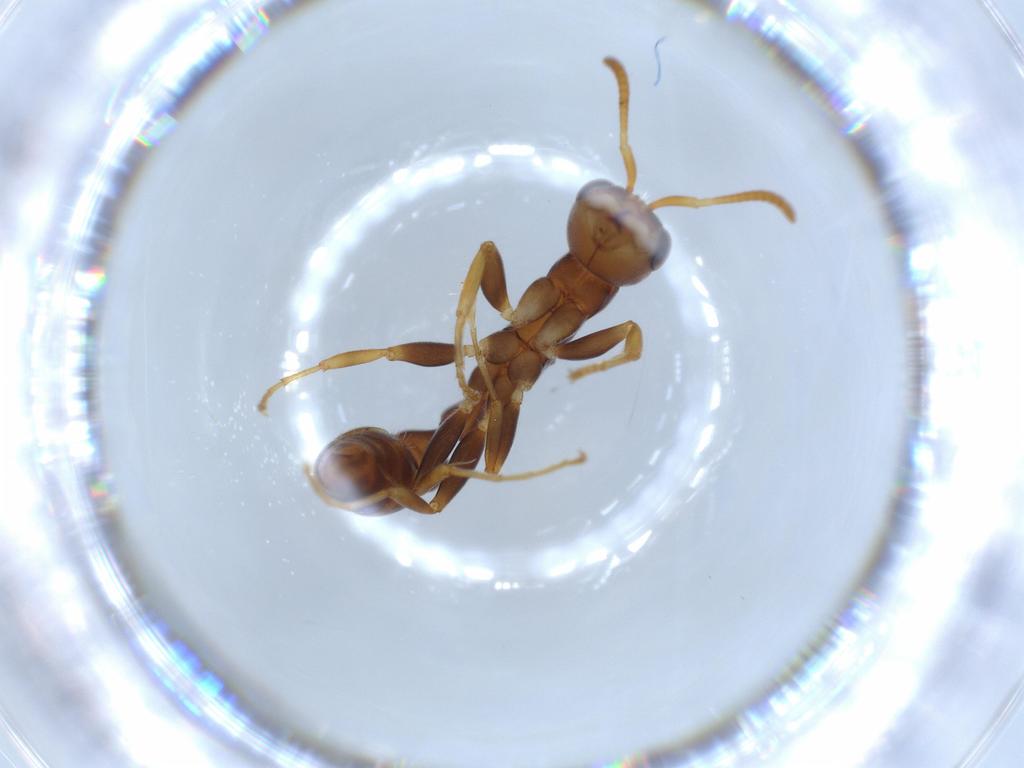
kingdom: Animalia
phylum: Arthropoda
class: Insecta
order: Hymenoptera
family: Formicidae
